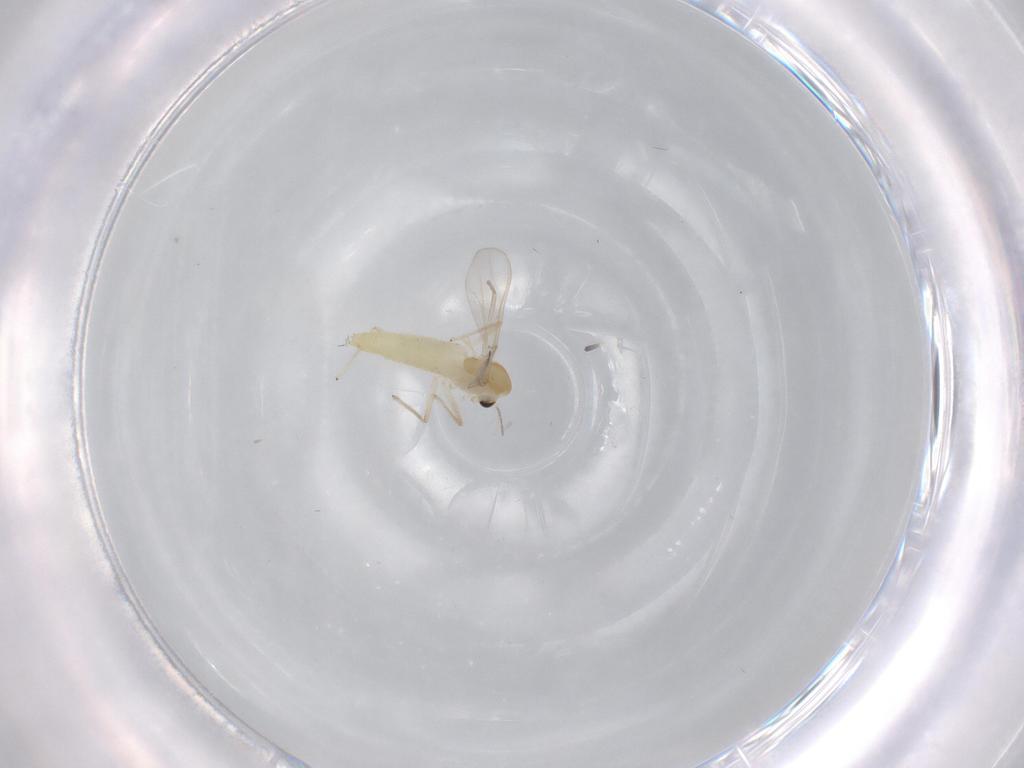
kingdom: Animalia
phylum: Arthropoda
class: Insecta
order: Diptera
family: Chironomidae
